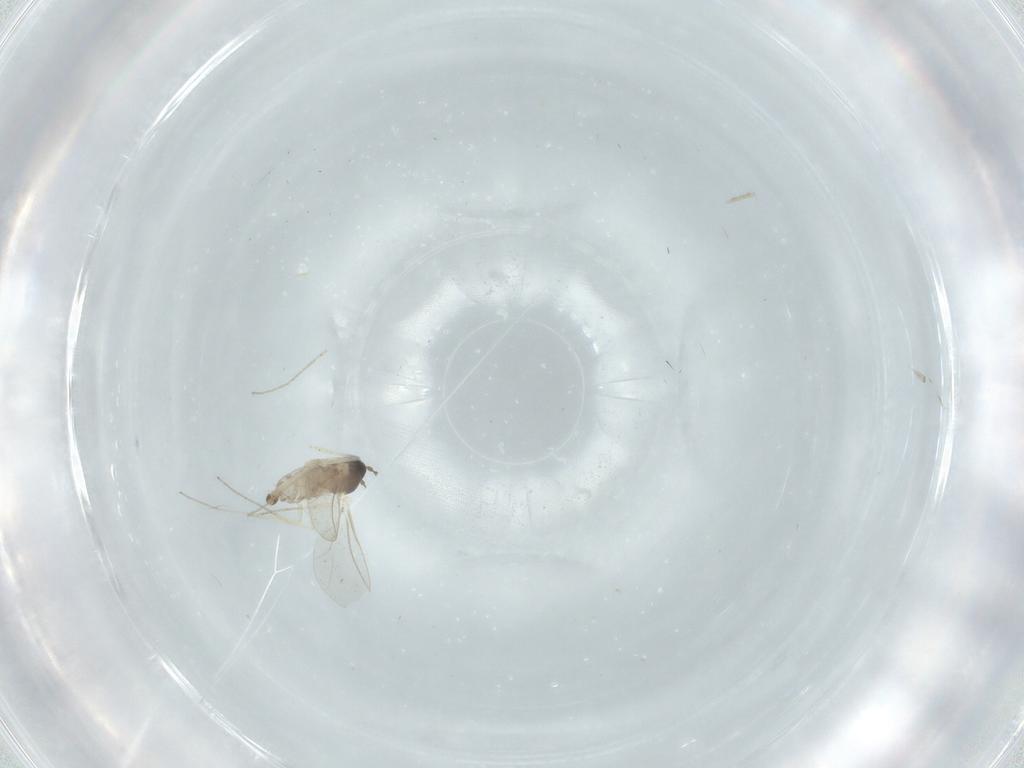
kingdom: Animalia
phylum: Arthropoda
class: Insecta
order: Diptera
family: Cecidomyiidae
